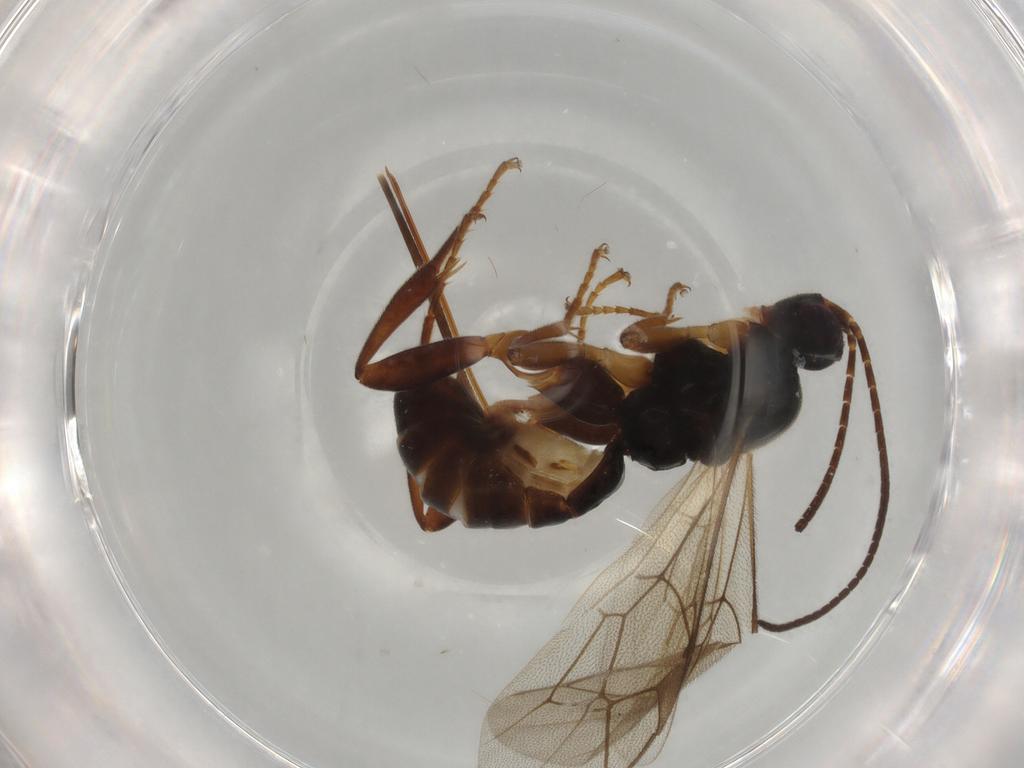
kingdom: Animalia
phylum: Arthropoda
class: Insecta
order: Hymenoptera
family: Ichneumonidae
